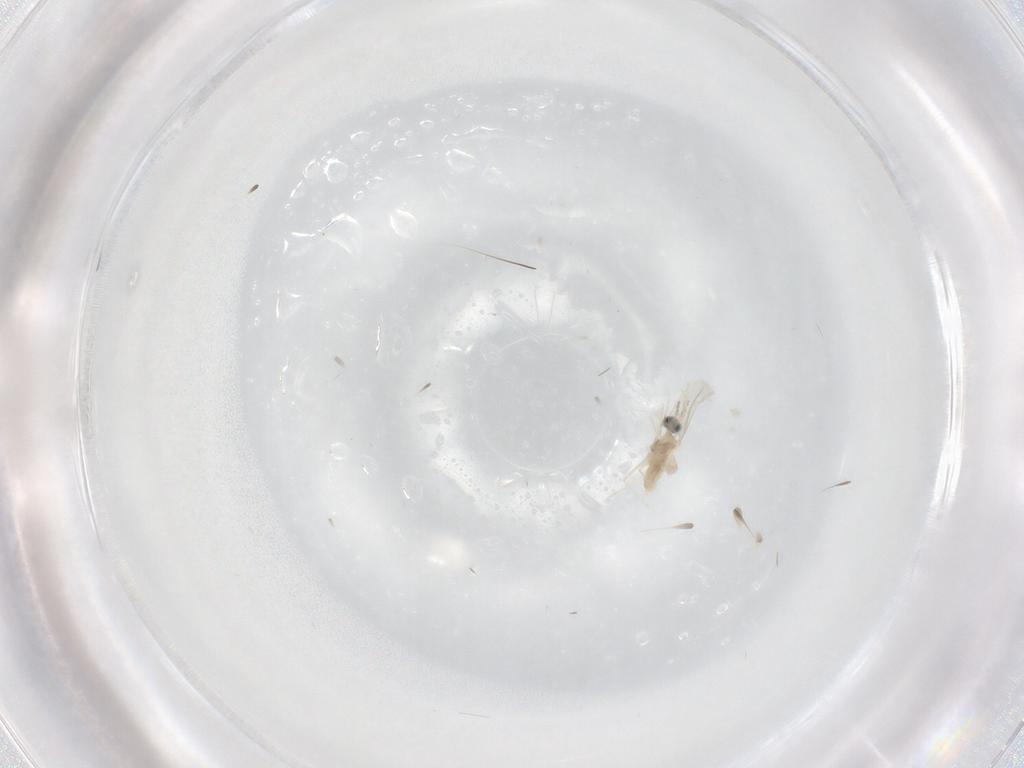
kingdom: Animalia
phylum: Arthropoda
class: Insecta
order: Diptera
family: Cecidomyiidae
